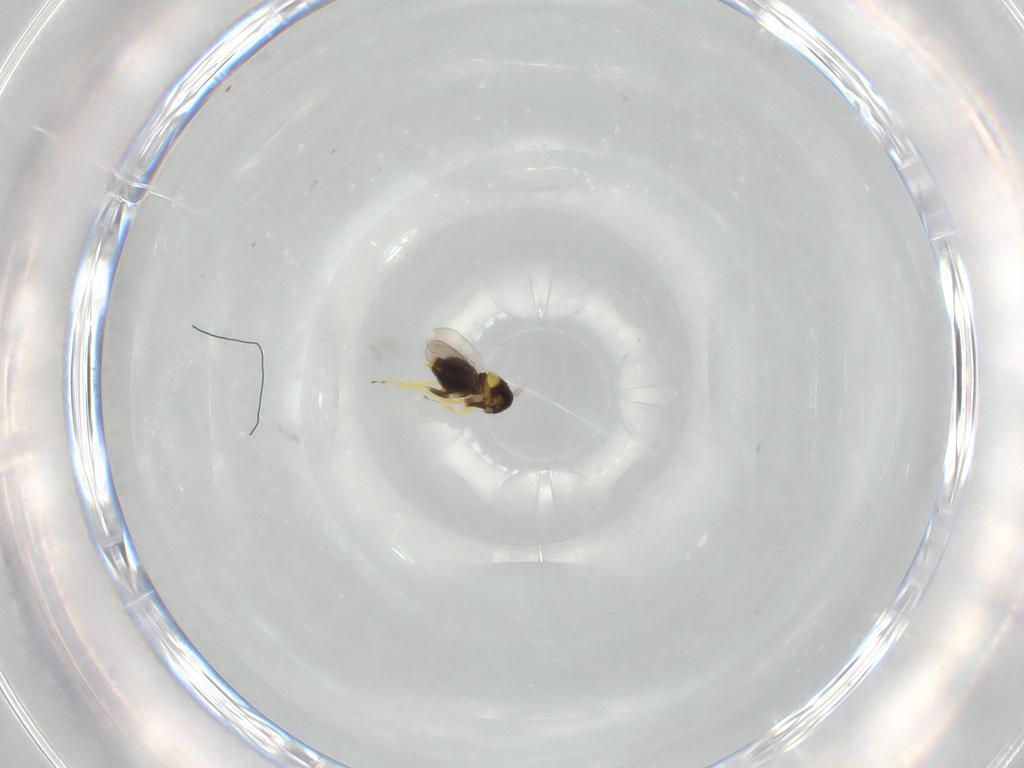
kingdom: Animalia
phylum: Arthropoda
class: Insecta
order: Hymenoptera
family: Aphelinidae
